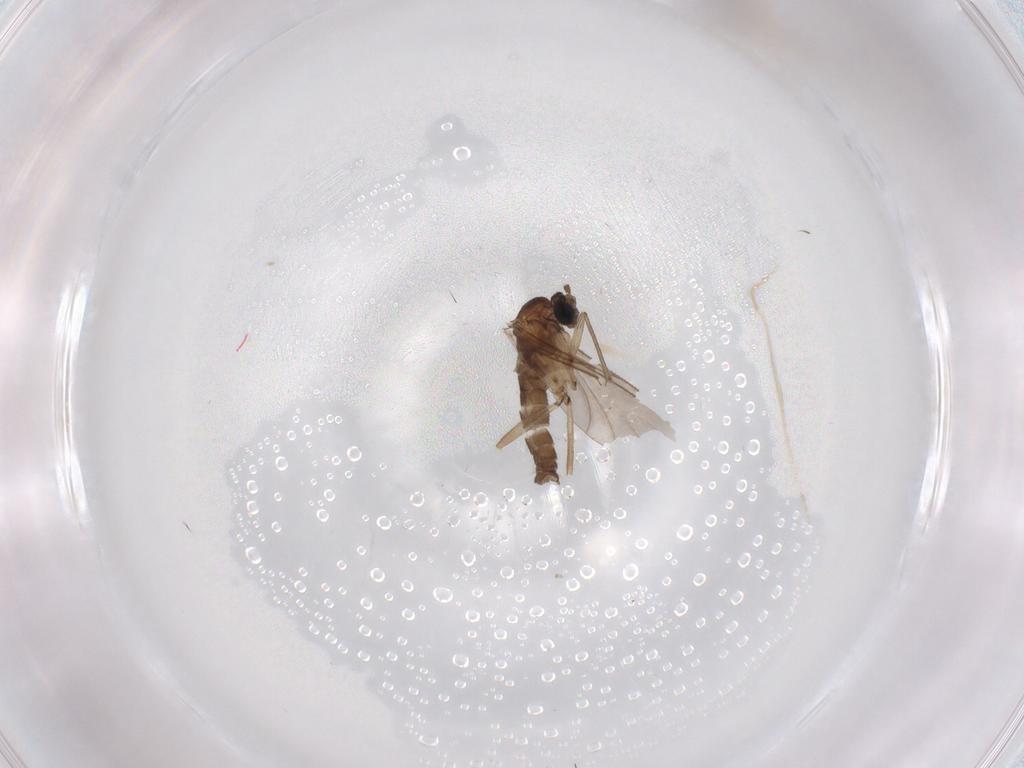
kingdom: Animalia
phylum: Arthropoda
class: Insecta
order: Diptera
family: Sciaridae
